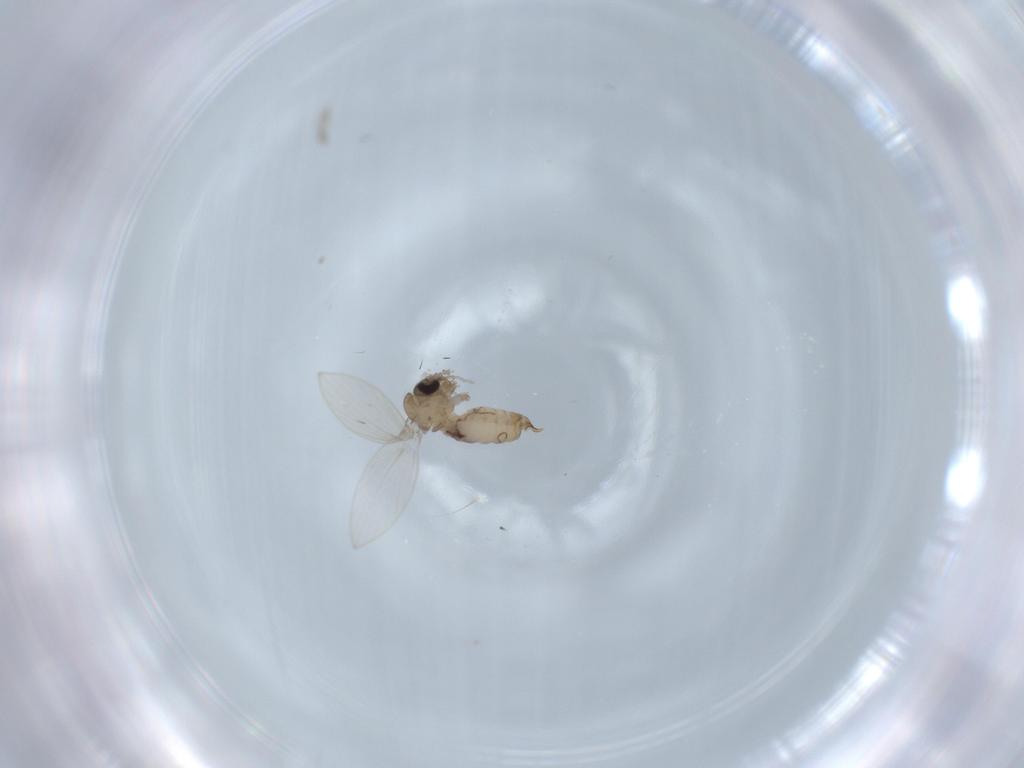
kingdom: Animalia
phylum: Arthropoda
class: Insecta
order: Diptera
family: Psychodidae
